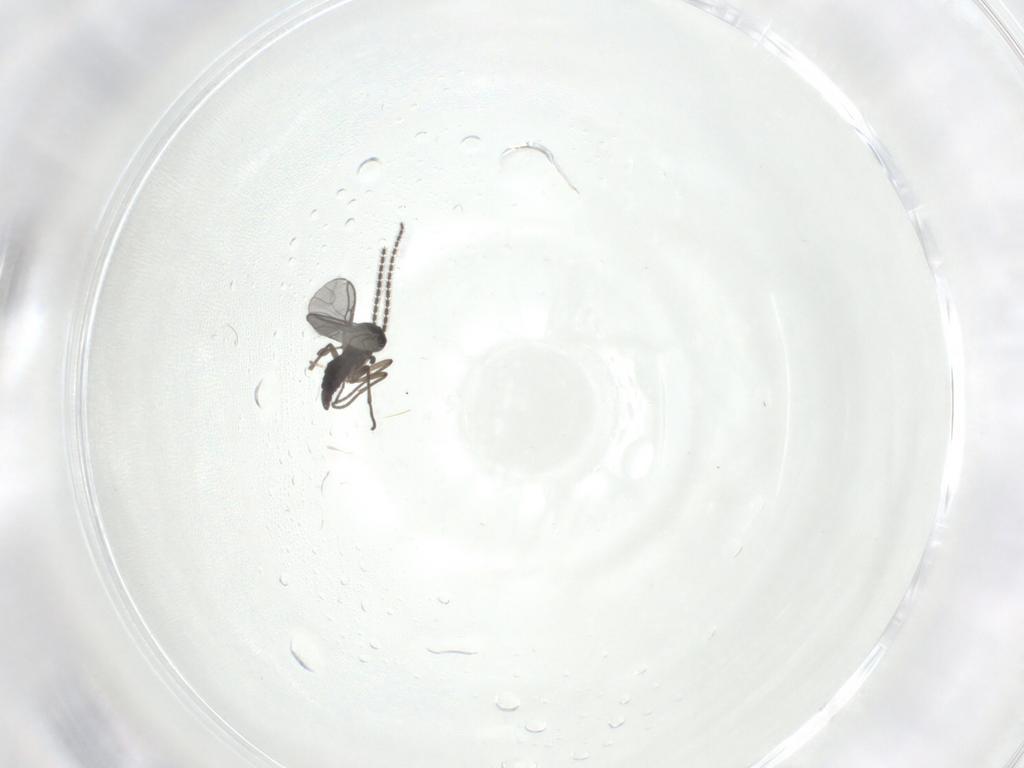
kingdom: Animalia
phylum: Arthropoda
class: Insecta
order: Diptera
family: Sciaridae
